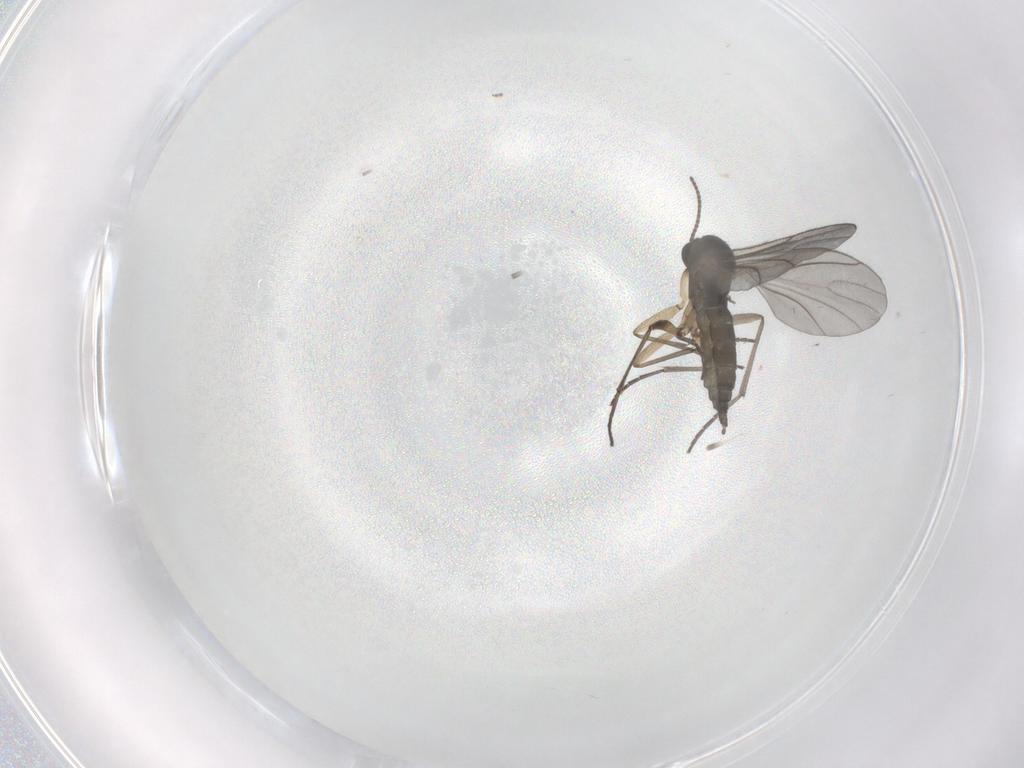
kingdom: Animalia
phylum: Arthropoda
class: Insecta
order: Diptera
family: Sciaridae
